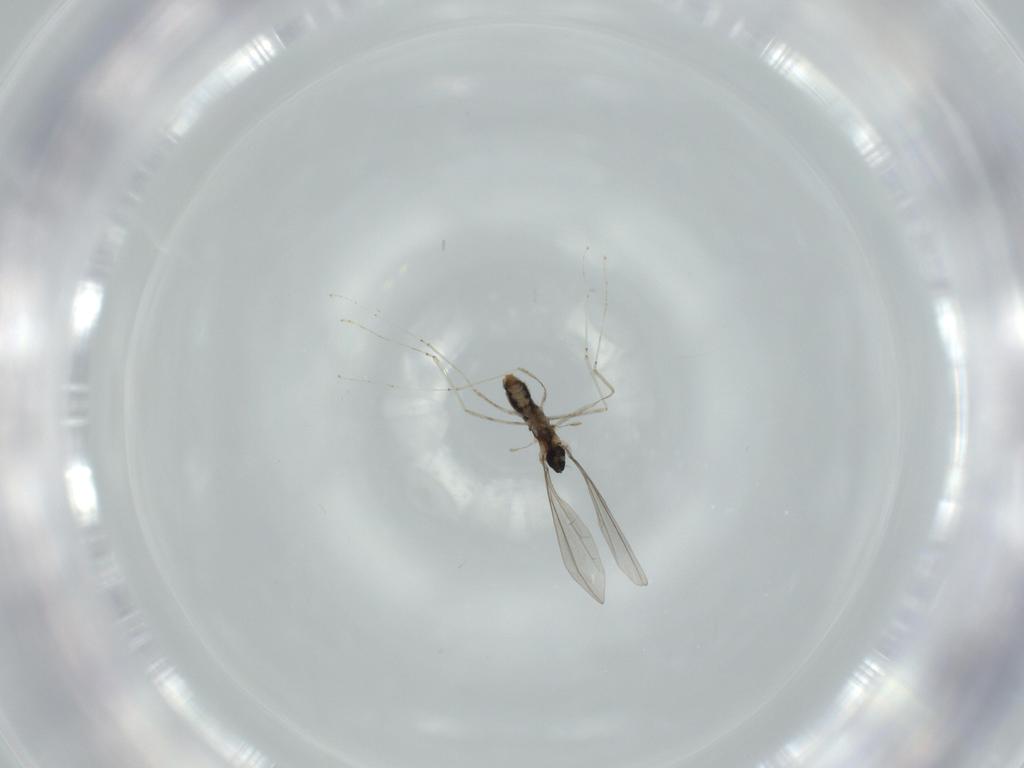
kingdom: Animalia
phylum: Arthropoda
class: Insecta
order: Diptera
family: Cecidomyiidae
